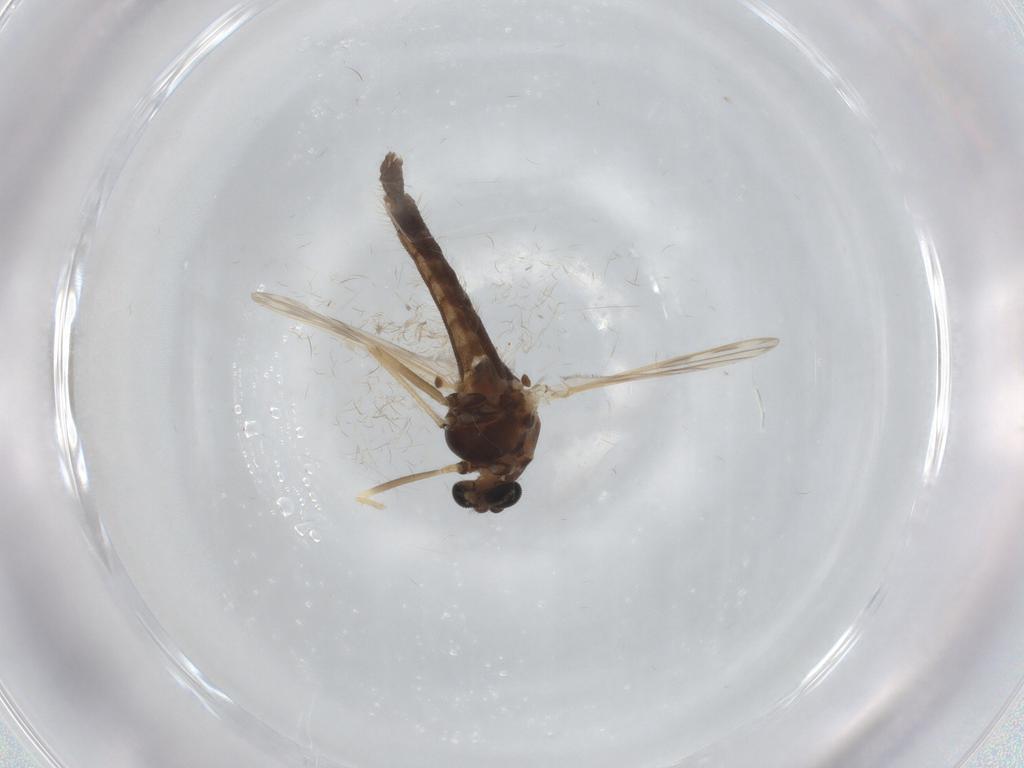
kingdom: Animalia
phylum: Arthropoda
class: Insecta
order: Diptera
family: Chironomidae
